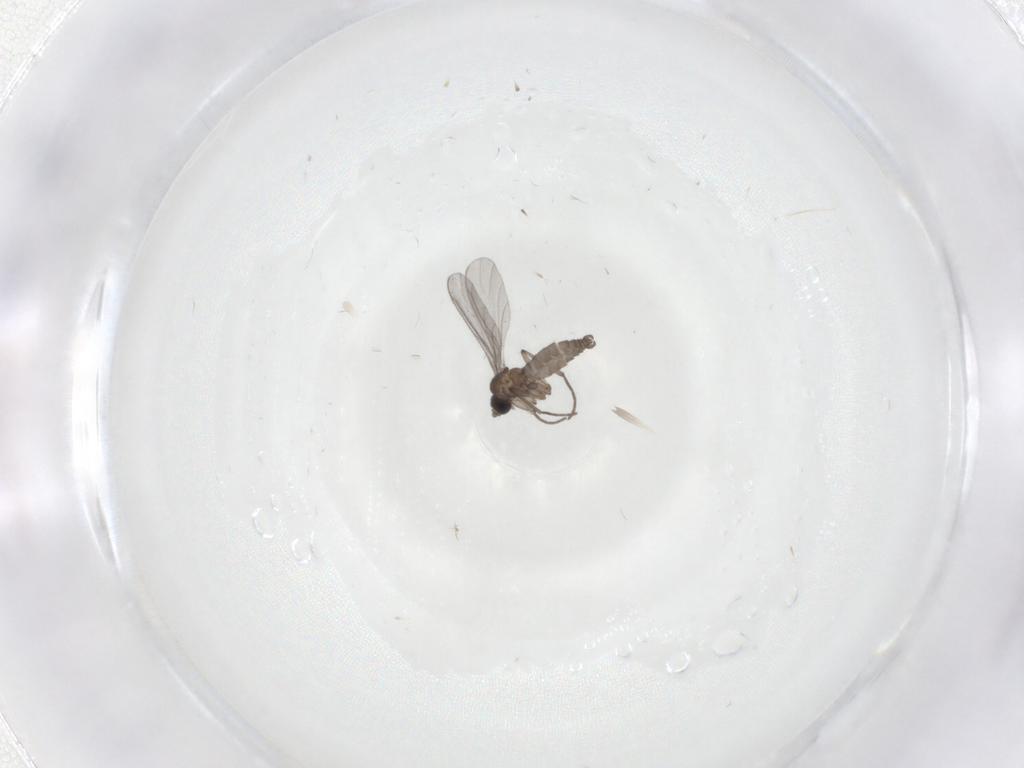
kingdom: Animalia
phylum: Arthropoda
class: Insecta
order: Diptera
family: Sciaridae
